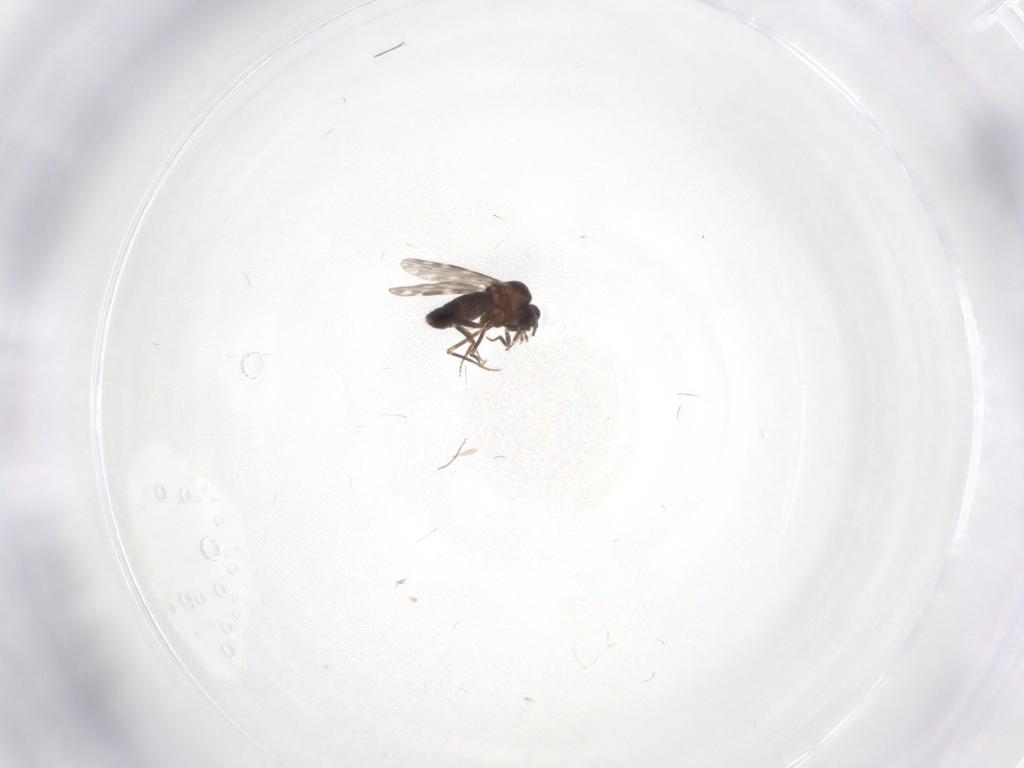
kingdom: Animalia
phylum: Arthropoda
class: Insecta
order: Diptera
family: Ceratopogonidae
